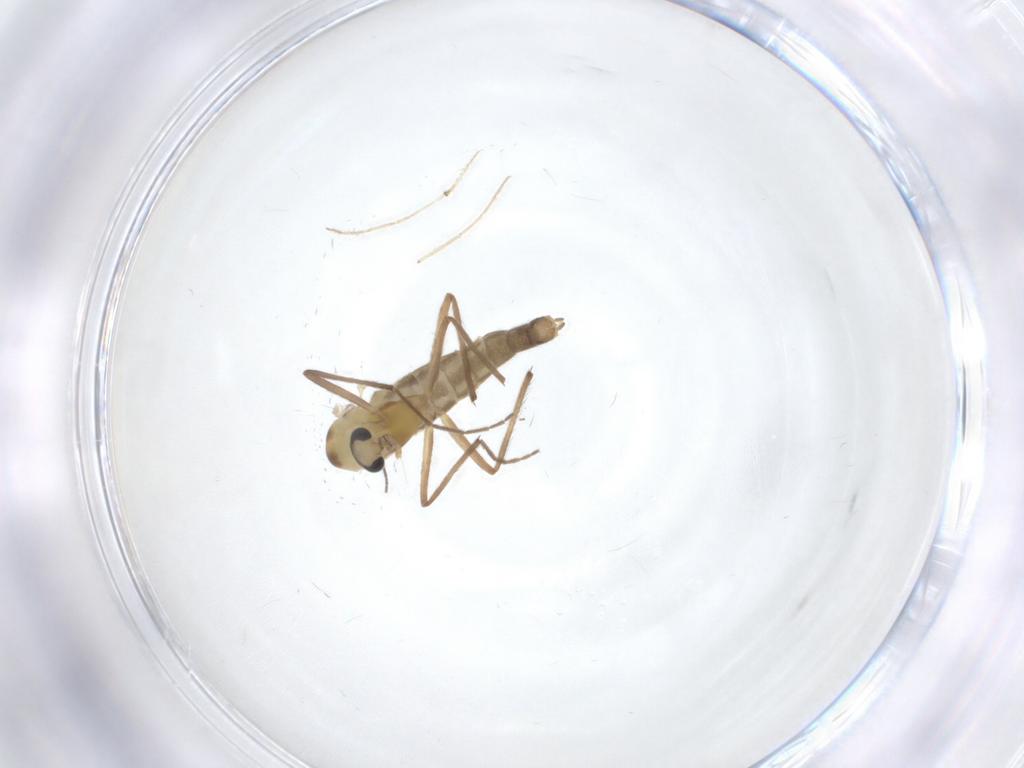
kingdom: Animalia
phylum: Arthropoda
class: Insecta
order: Diptera
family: Chironomidae
